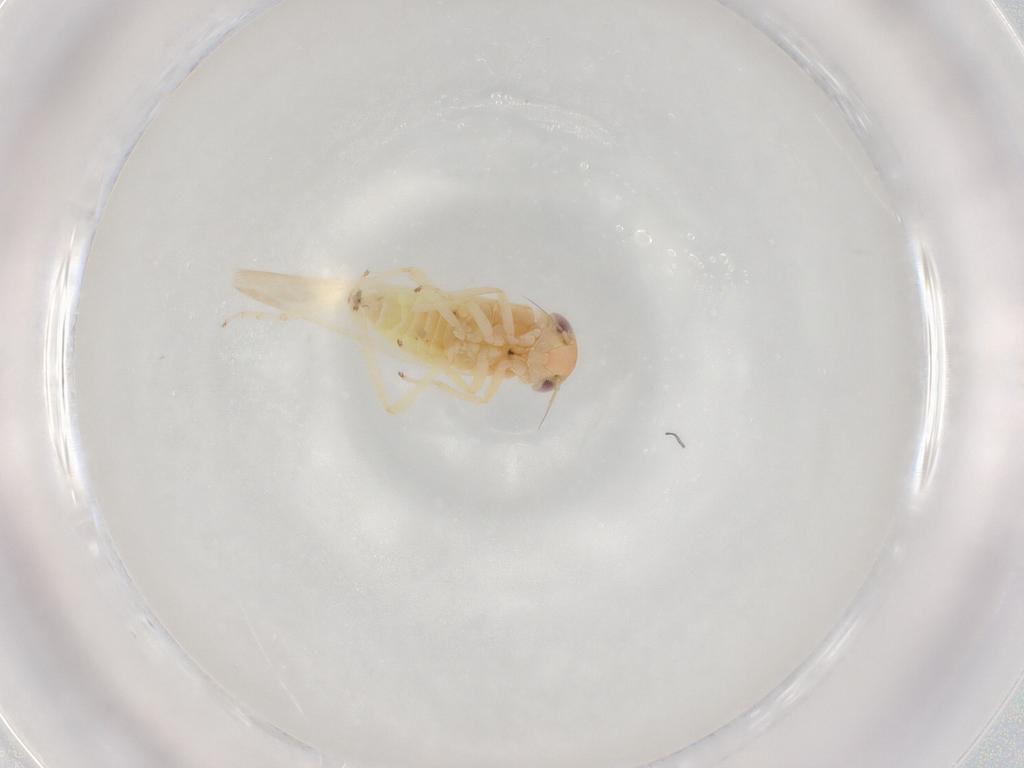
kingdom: Animalia
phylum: Arthropoda
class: Insecta
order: Hemiptera
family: Cicadellidae
